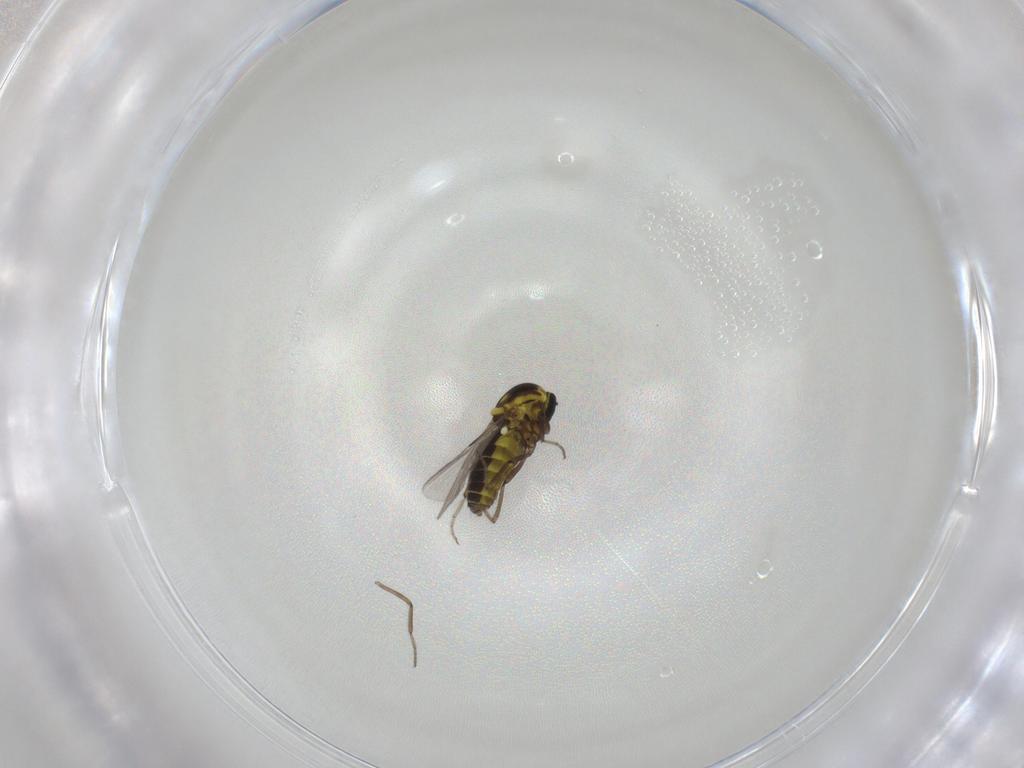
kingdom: Animalia
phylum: Arthropoda
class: Insecta
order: Diptera
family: Ceratopogonidae
